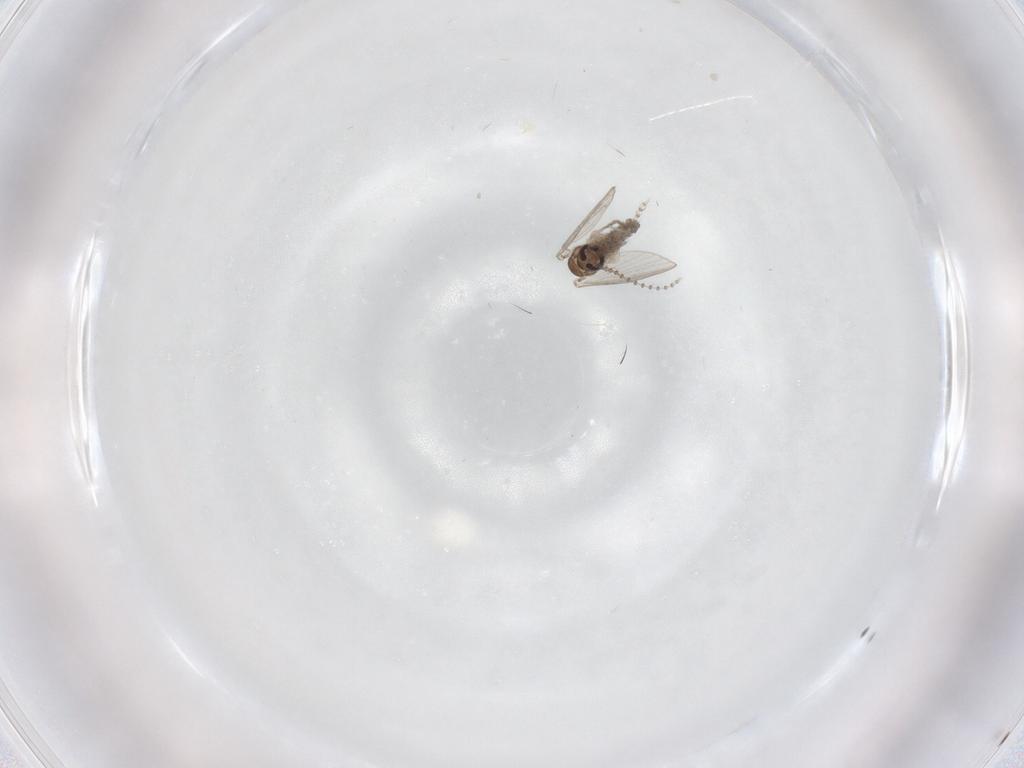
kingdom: Animalia
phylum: Arthropoda
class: Insecta
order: Diptera
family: Psychodidae
